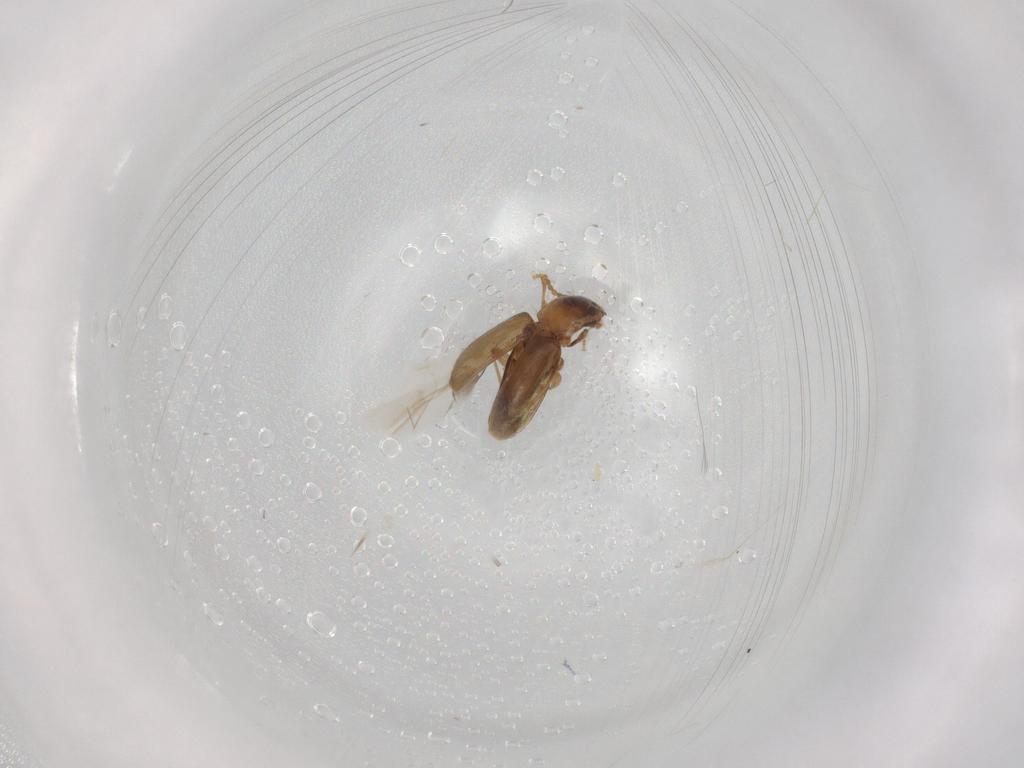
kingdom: Animalia
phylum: Arthropoda
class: Insecta
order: Coleoptera
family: Carabidae
